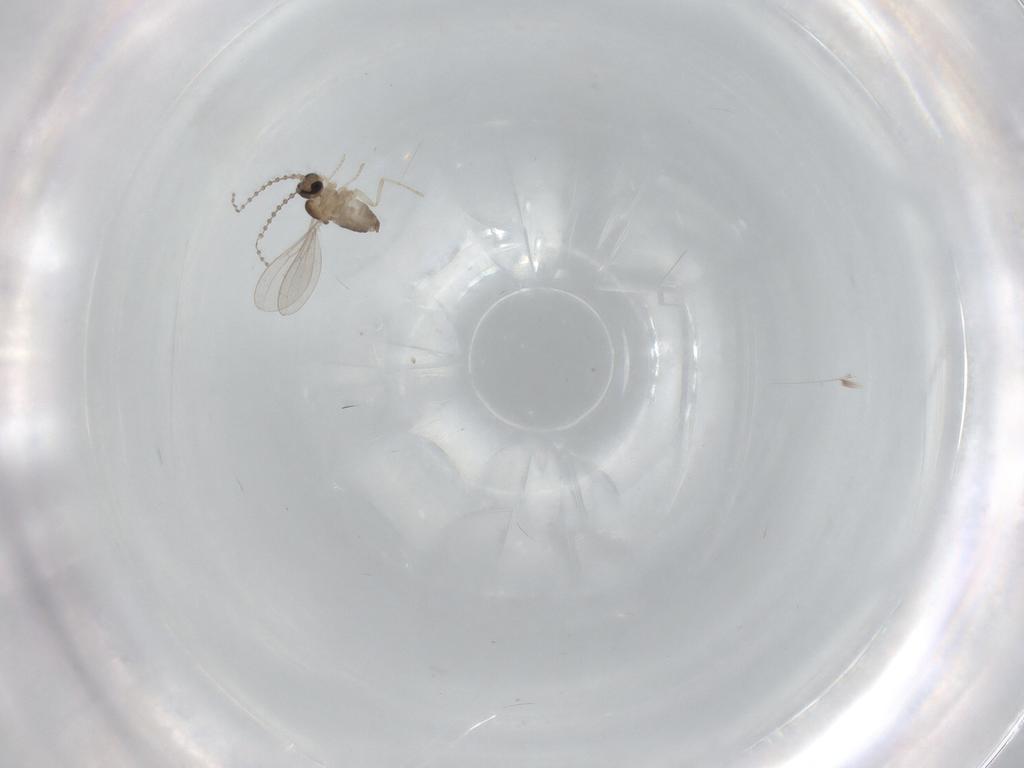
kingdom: Animalia
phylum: Arthropoda
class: Insecta
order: Diptera
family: Cecidomyiidae
